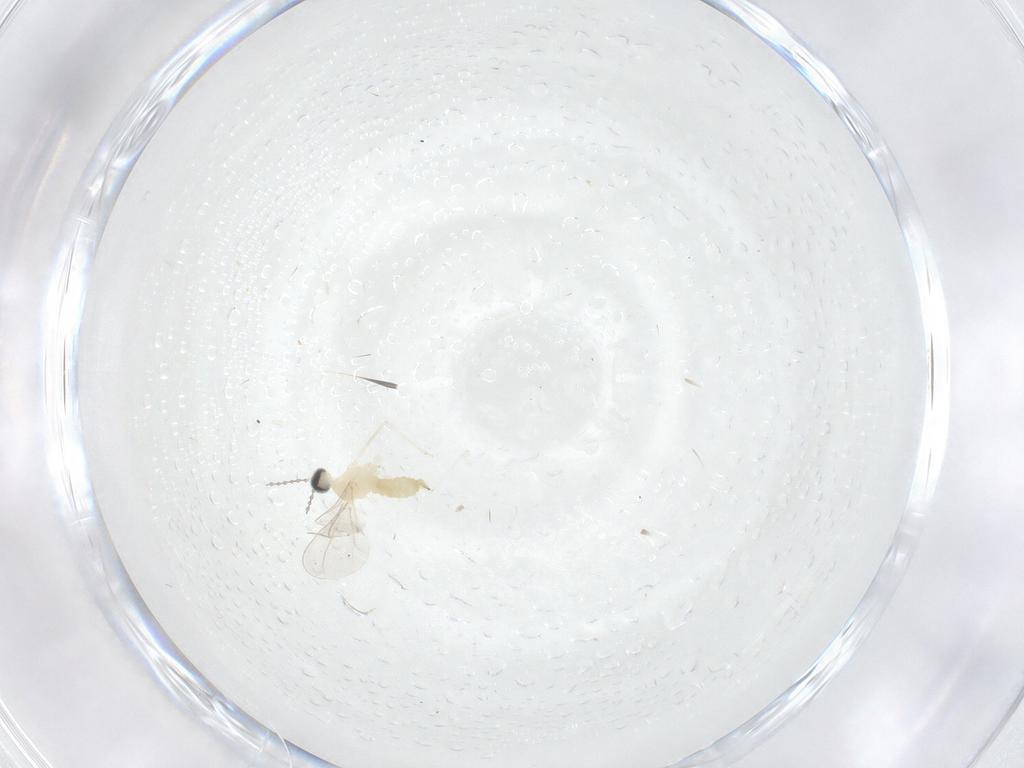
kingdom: Animalia
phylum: Arthropoda
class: Insecta
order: Diptera
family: Cecidomyiidae
